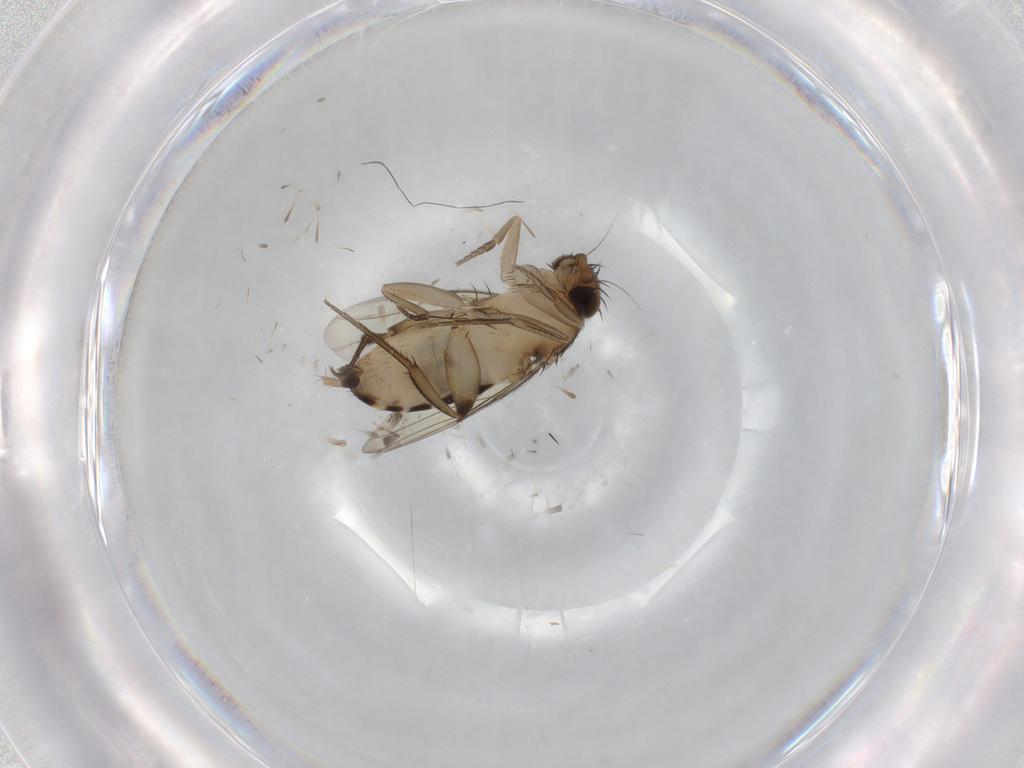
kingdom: Animalia
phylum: Arthropoda
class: Insecta
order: Diptera
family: Phoridae
